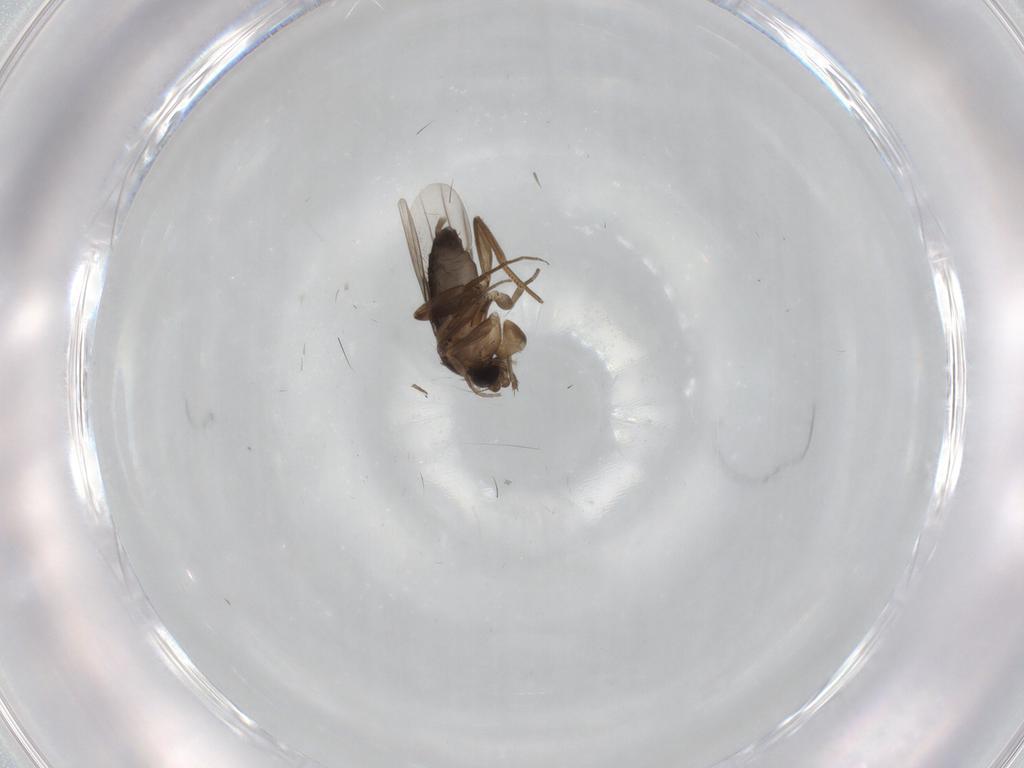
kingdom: Animalia
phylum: Arthropoda
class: Insecta
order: Diptera
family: Phoridae
